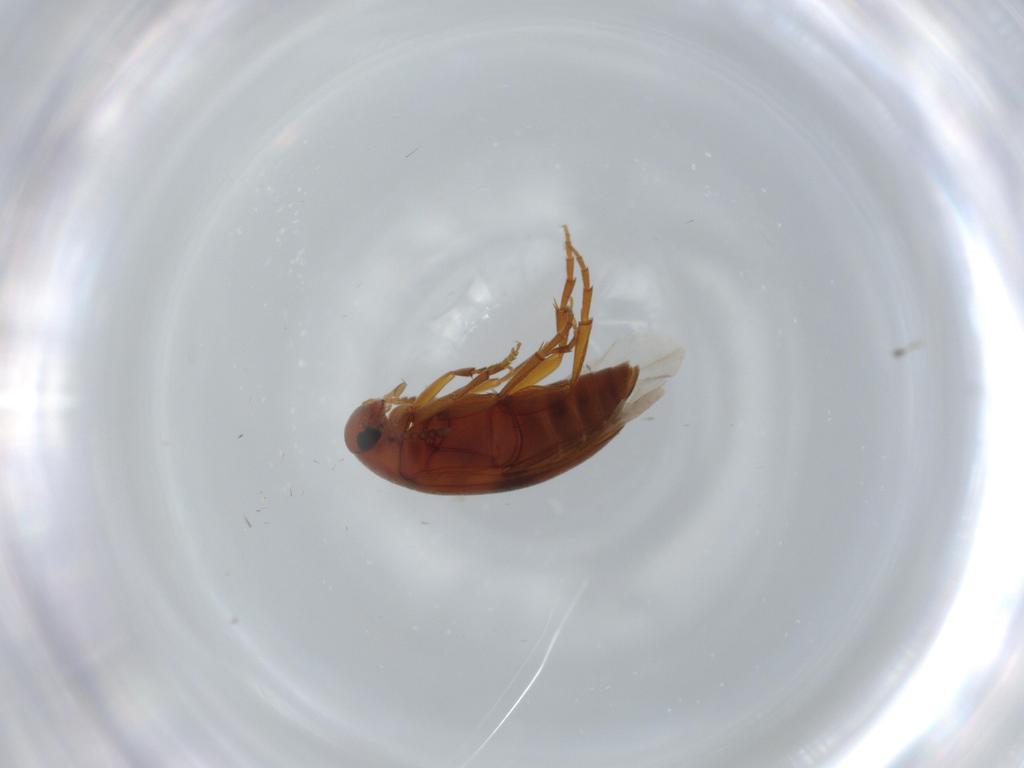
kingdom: Animalia
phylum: Arthropoda
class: Insecta
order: Coleoptera
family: Scraptiidae
